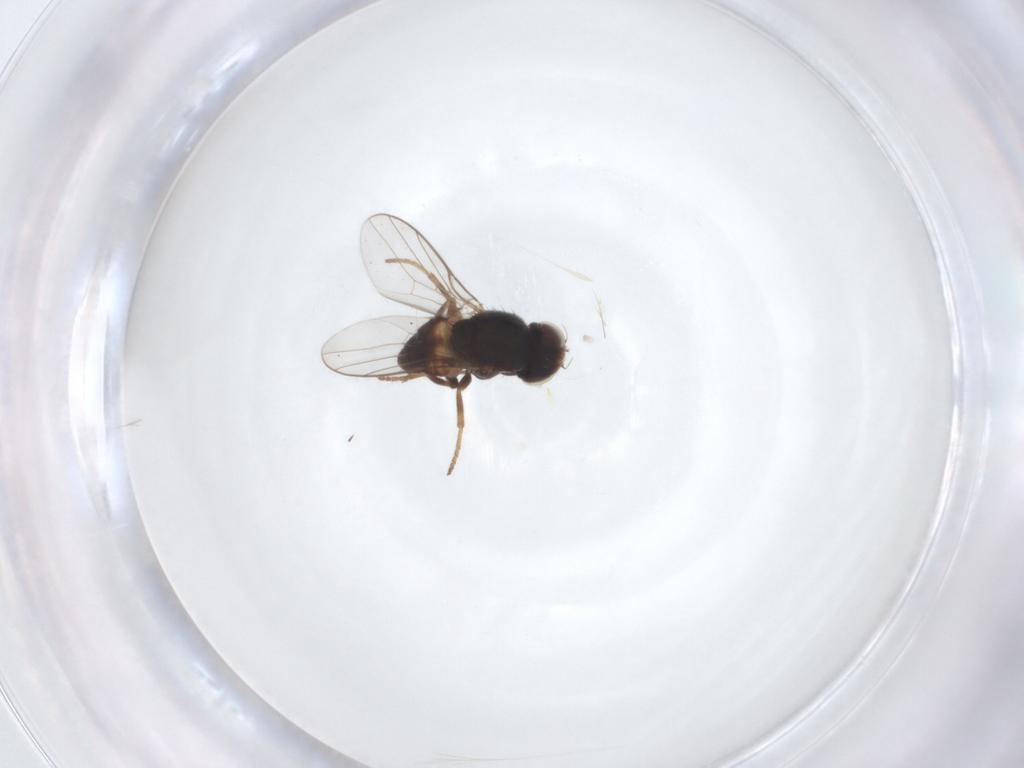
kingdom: Animalia
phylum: Arthropoda
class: Insecta
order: Diptera
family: Chloropidae
